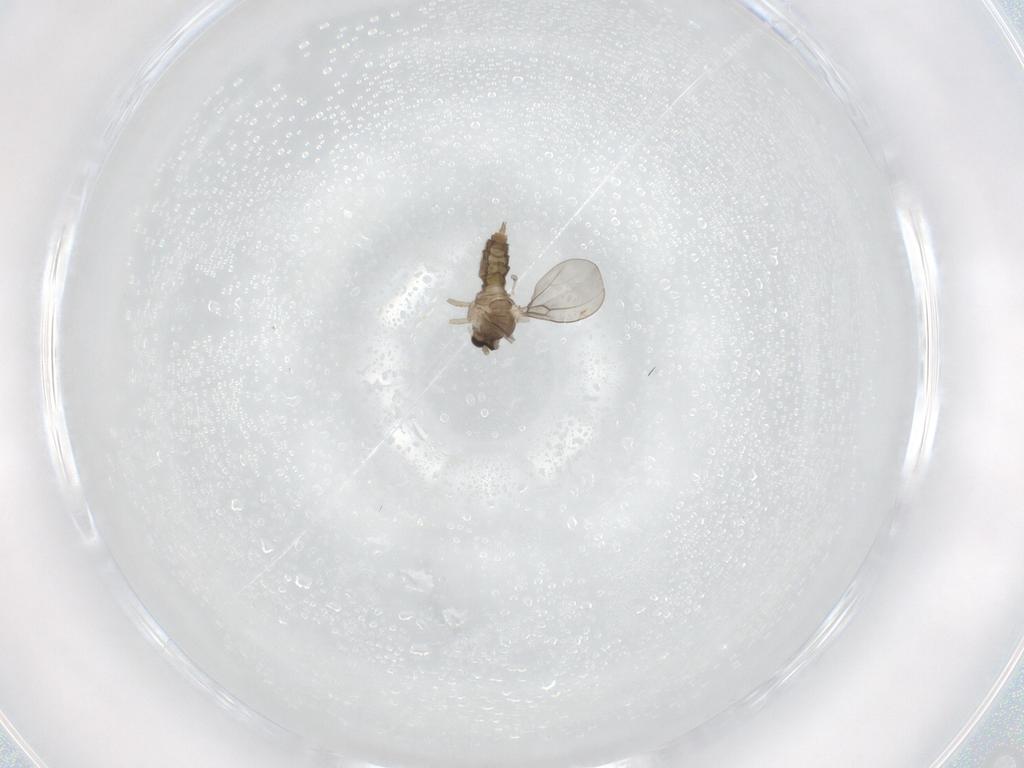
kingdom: Animalia
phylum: Arthropoda
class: Insecta
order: Diptera
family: Cecidomyiidae
